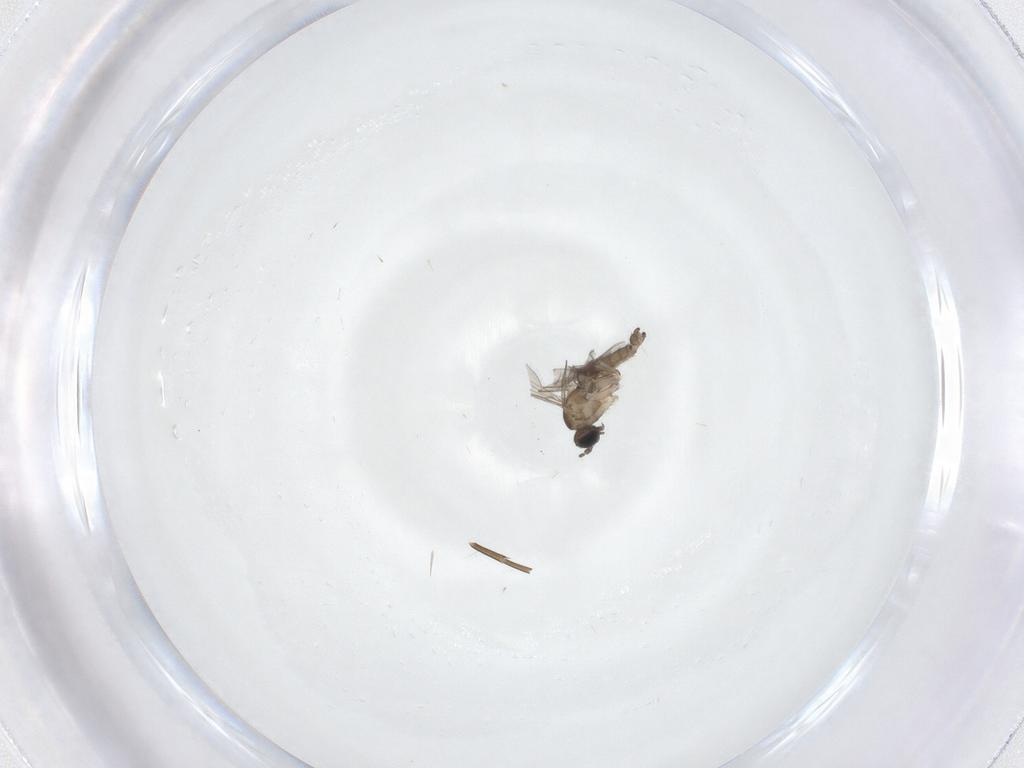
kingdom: Animalia
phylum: Arthropoda
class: Insecta
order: Diptera
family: Phoridae
